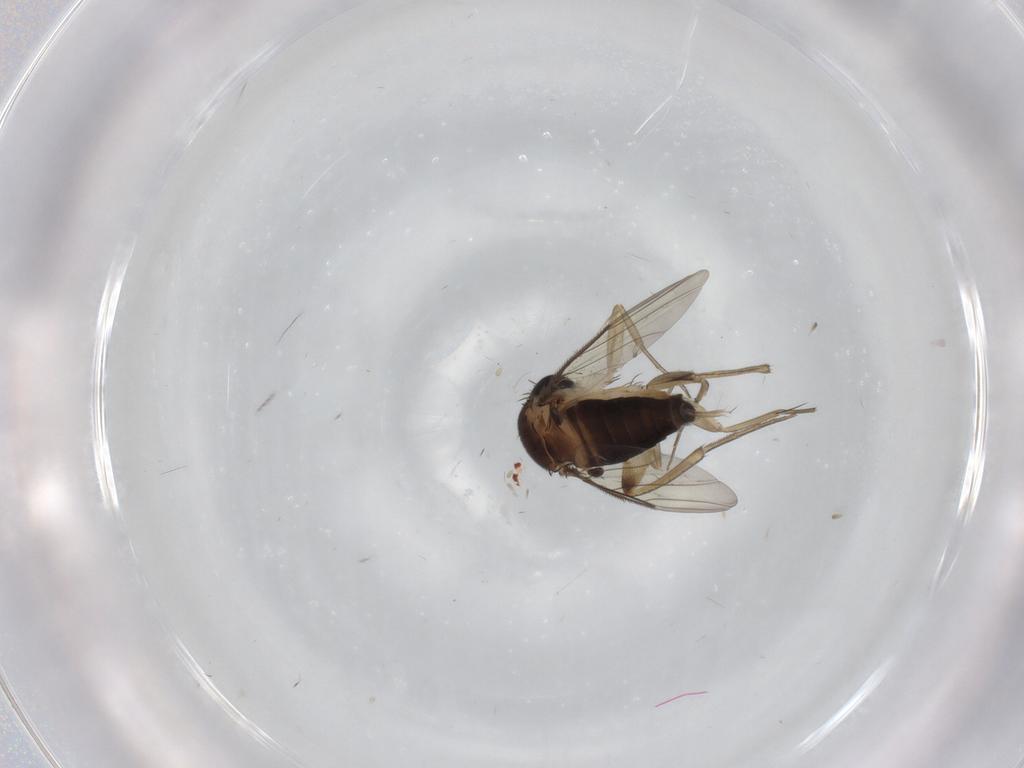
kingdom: Animalia
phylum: Arthropoda
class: Insecta
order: Diptera
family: Phoridae
